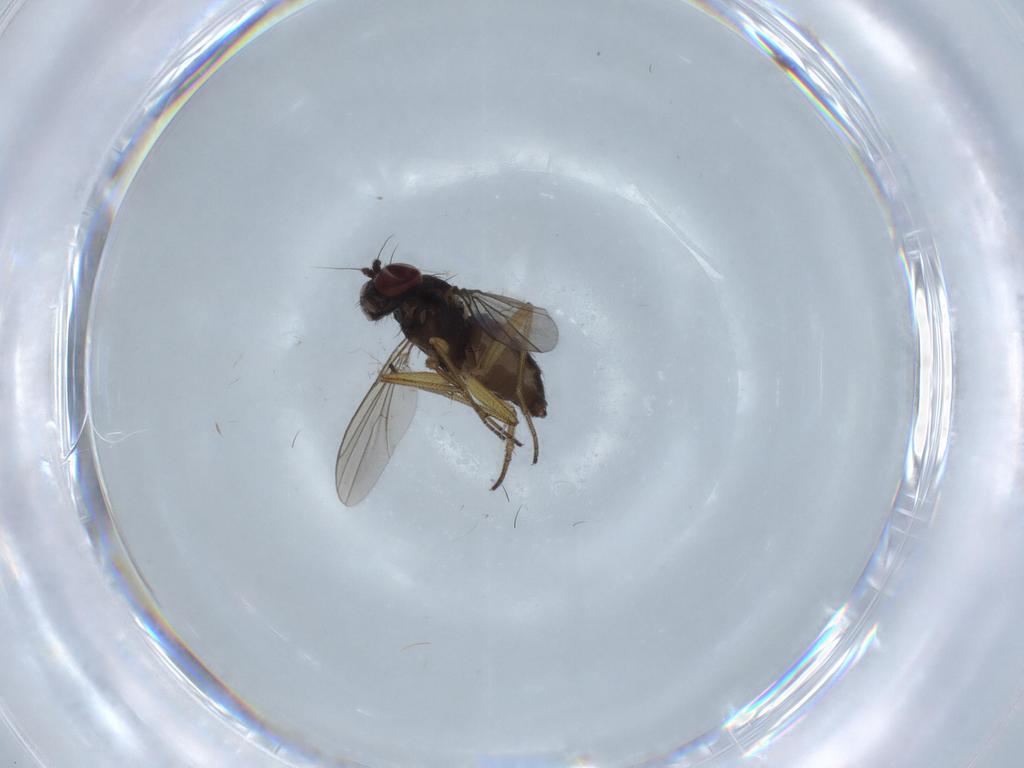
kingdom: Animalia
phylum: Arthropoda
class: Insecta
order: Diptera
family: Dolichopodidae
